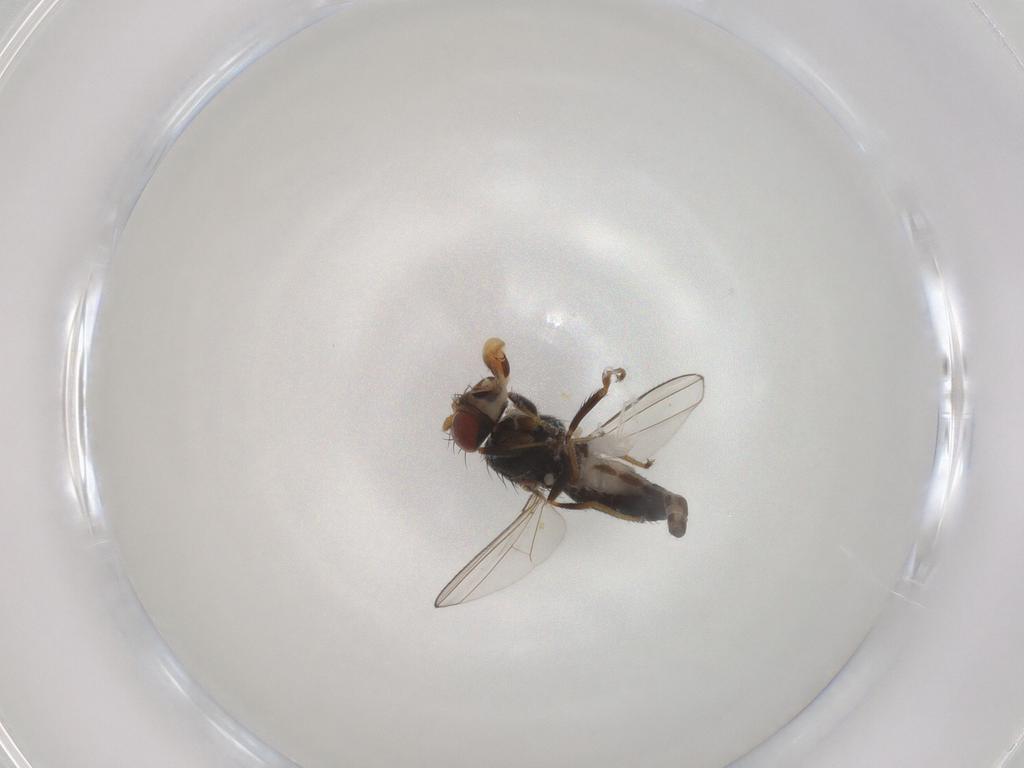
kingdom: Animalia
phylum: Arthropoda
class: Insecta
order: Diptera
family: Ephydridae
